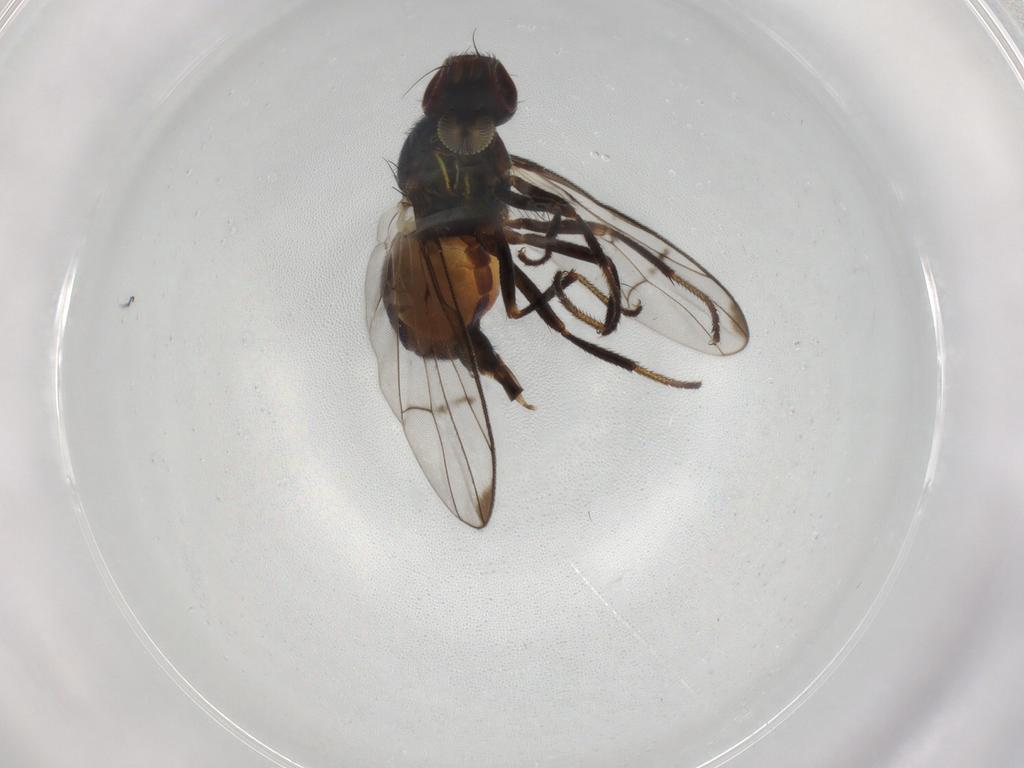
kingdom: Animalia
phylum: Arthropoda
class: Insecta
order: Diptera
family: Platystomatidae
